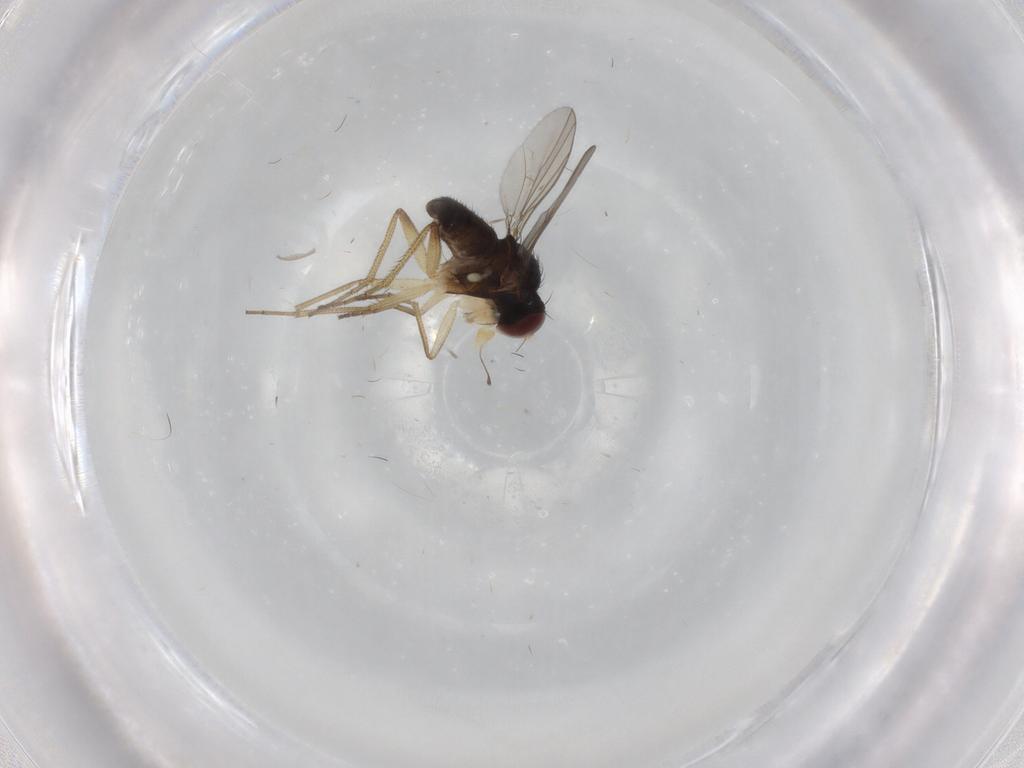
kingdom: Animalia
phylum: Arthropoda
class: Insecta
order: Diptera
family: Dolichopodidae
